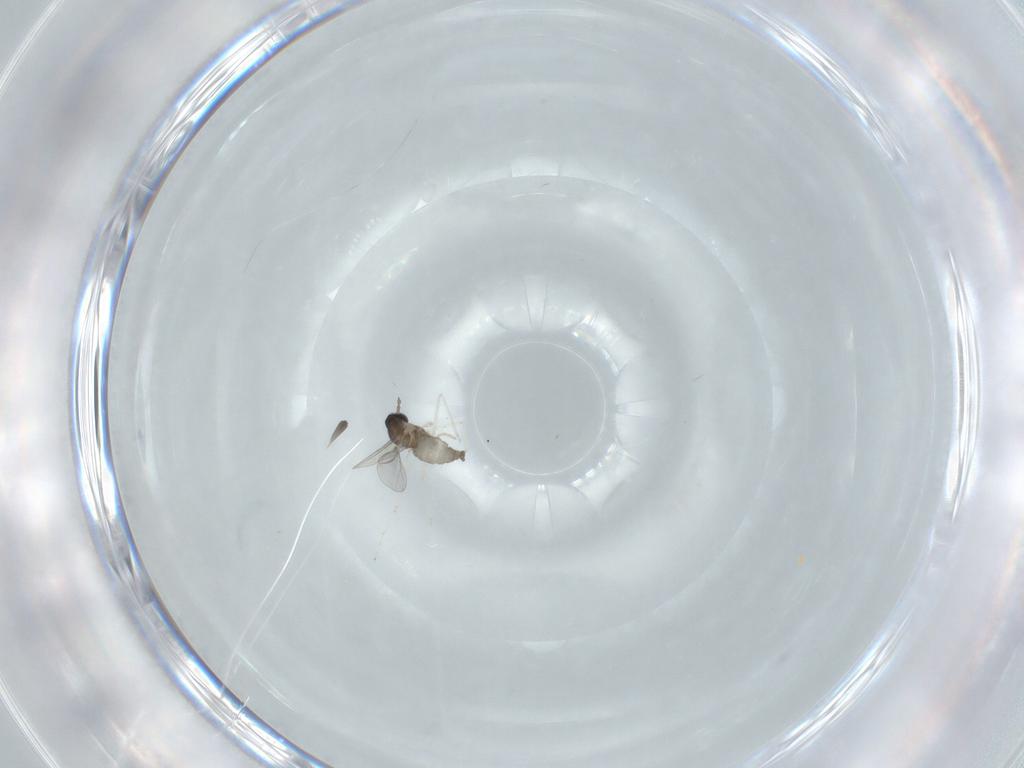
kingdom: Animalia
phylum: Arthropoda
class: Insecta
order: Diptera
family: Cecidomyiidae
